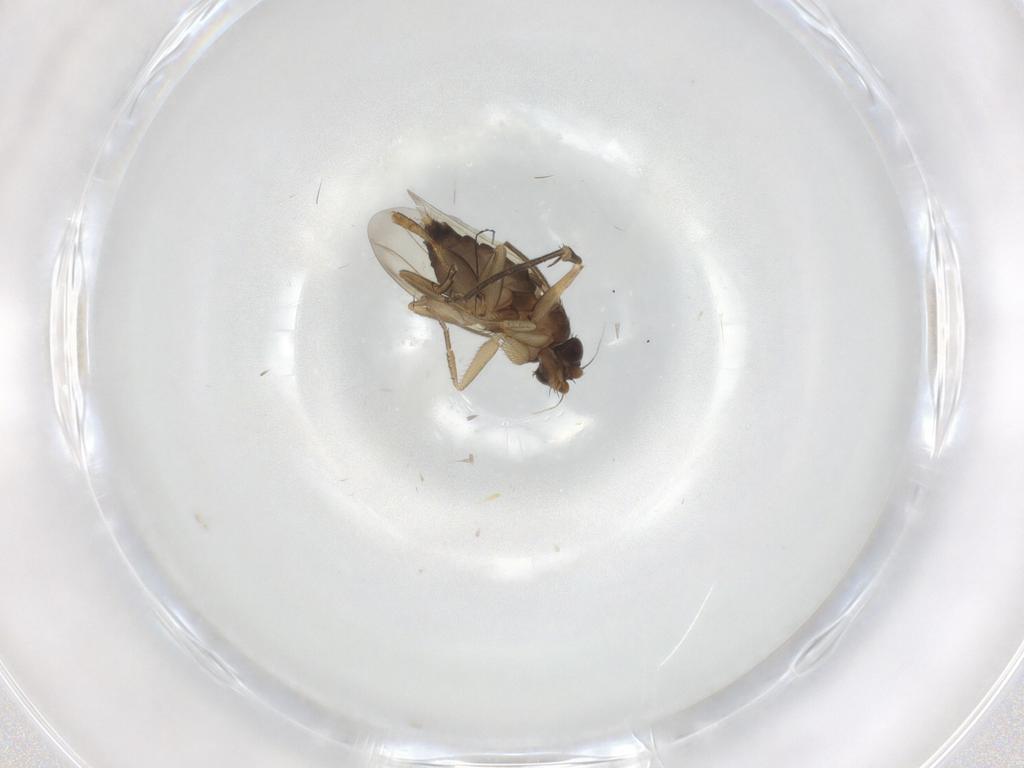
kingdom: Animalia
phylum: Arthropoda
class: Insecta
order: Diptera
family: Phoridae
